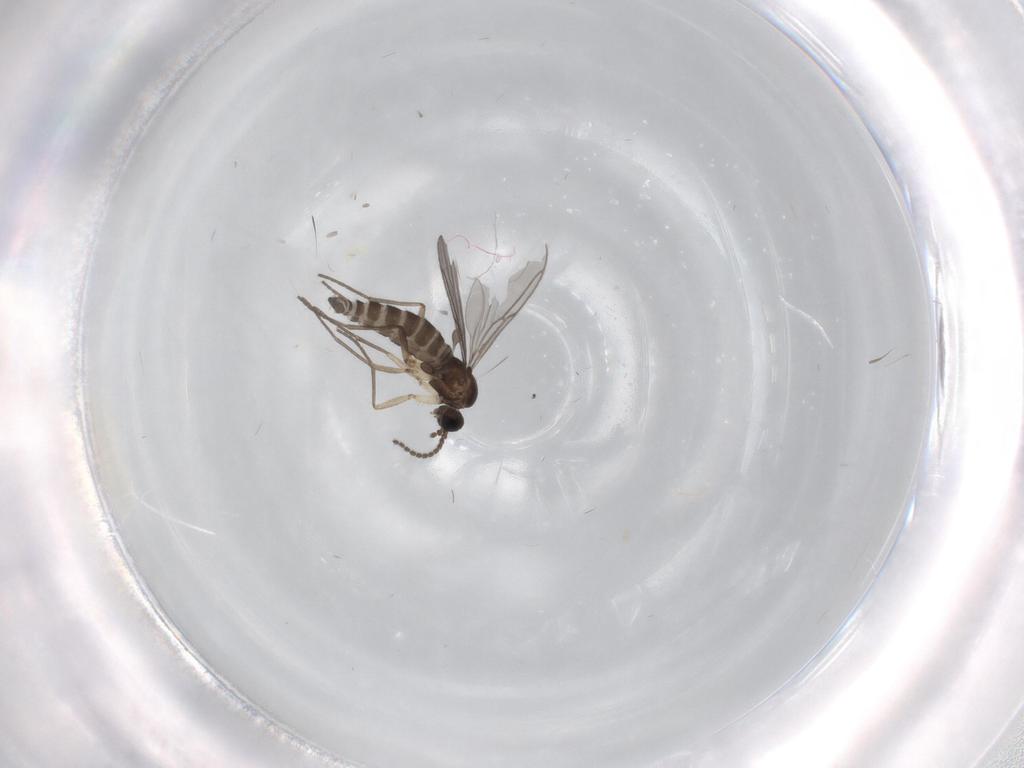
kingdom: Animalia
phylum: Arthropoda
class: Insecta
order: Diptera
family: Sciaridae
